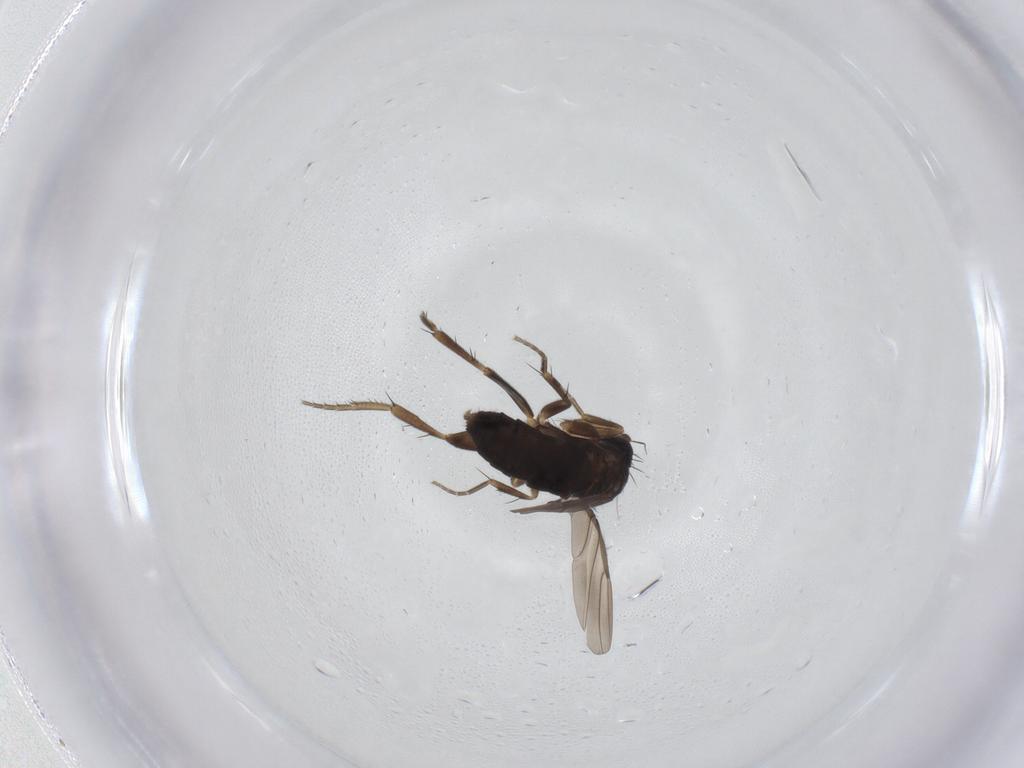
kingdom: Animalia
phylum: Arthropoda
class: Insecta
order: Diptera
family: Phoridae
